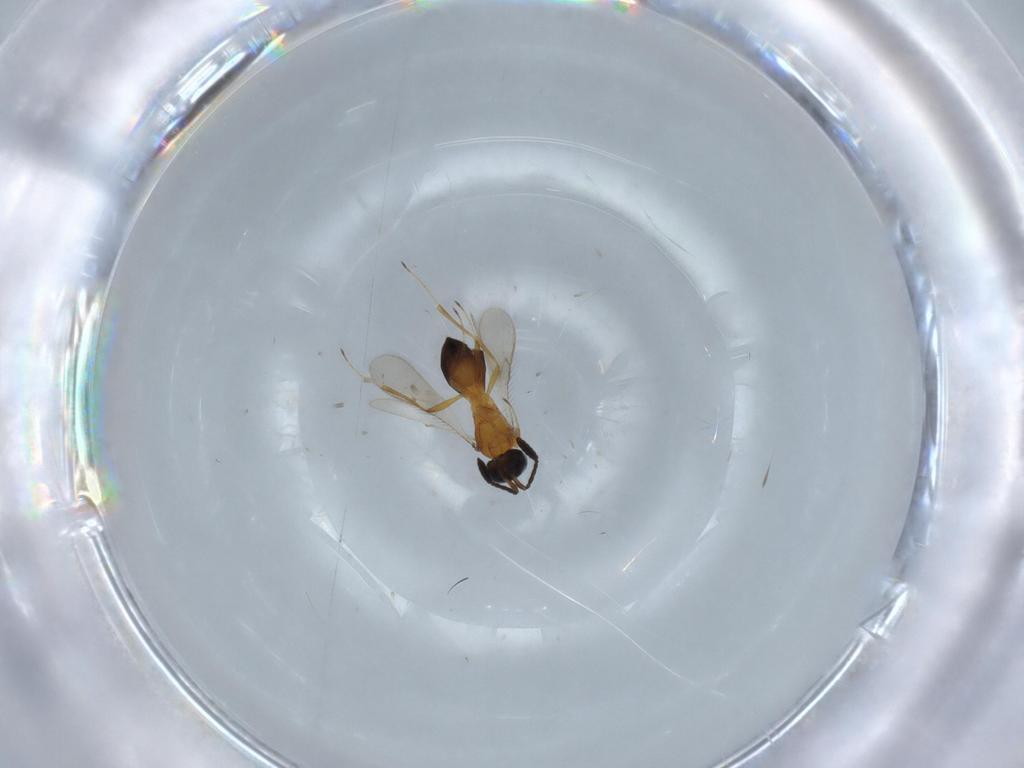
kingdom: Animalia
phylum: Arthropoda
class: Insecta
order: Hymenoptera
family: Scelionidae
